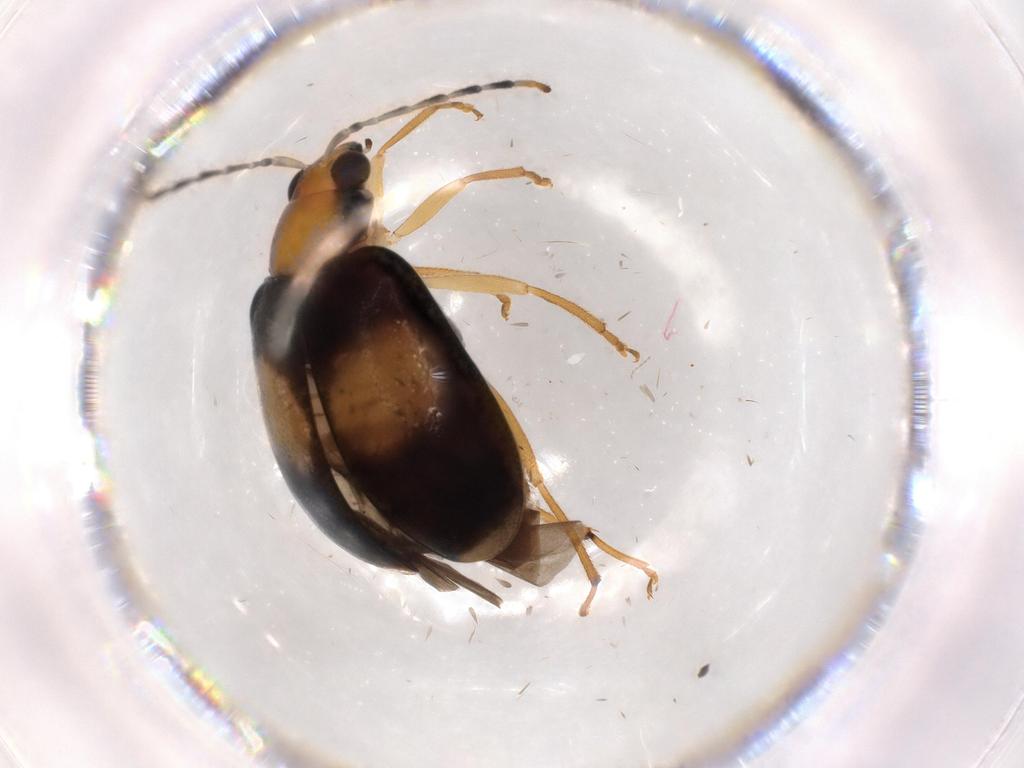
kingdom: Animalia
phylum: Arthropoda
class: Insecta
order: Coleoptera
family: Chrysomelidae
